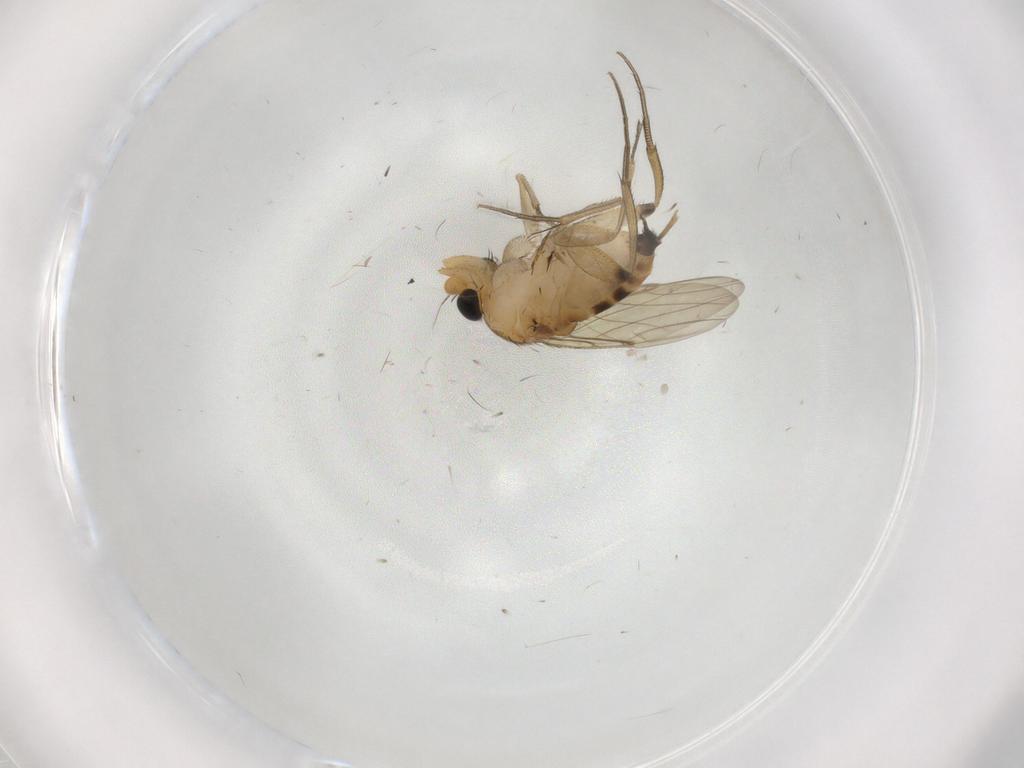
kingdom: Animalia
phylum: Arthropoda
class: Insecta
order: Diptera
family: Phoridae
